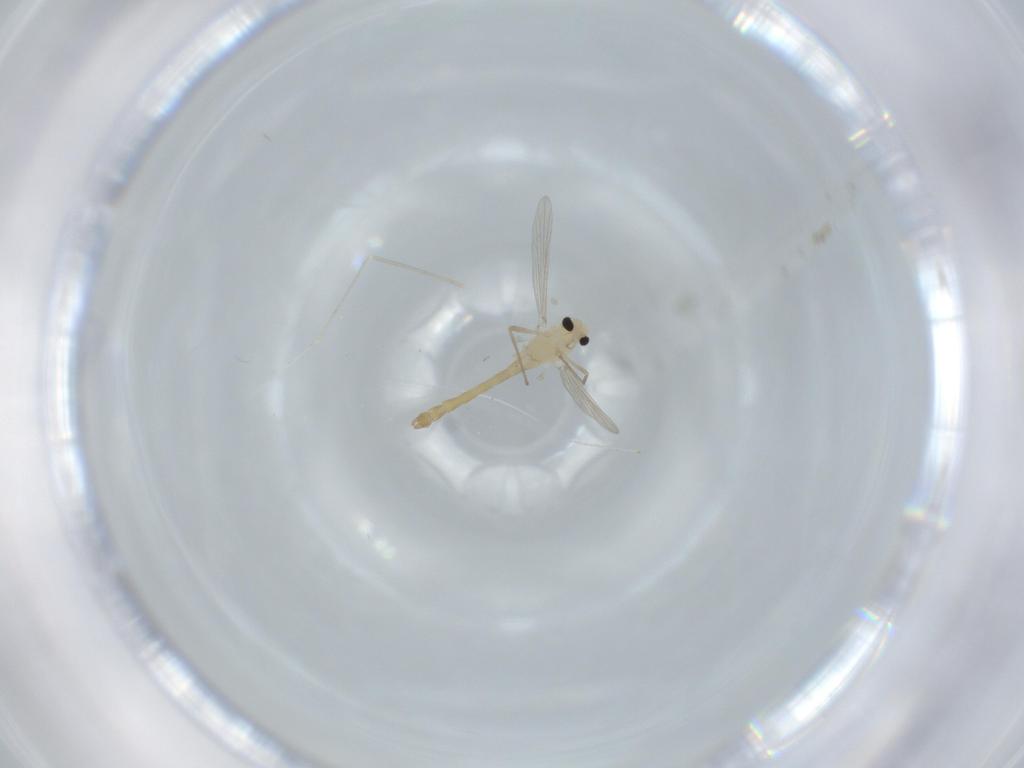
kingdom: Animalia
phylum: Arthropoda
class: Insecta
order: Diptera
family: Chironomidae
